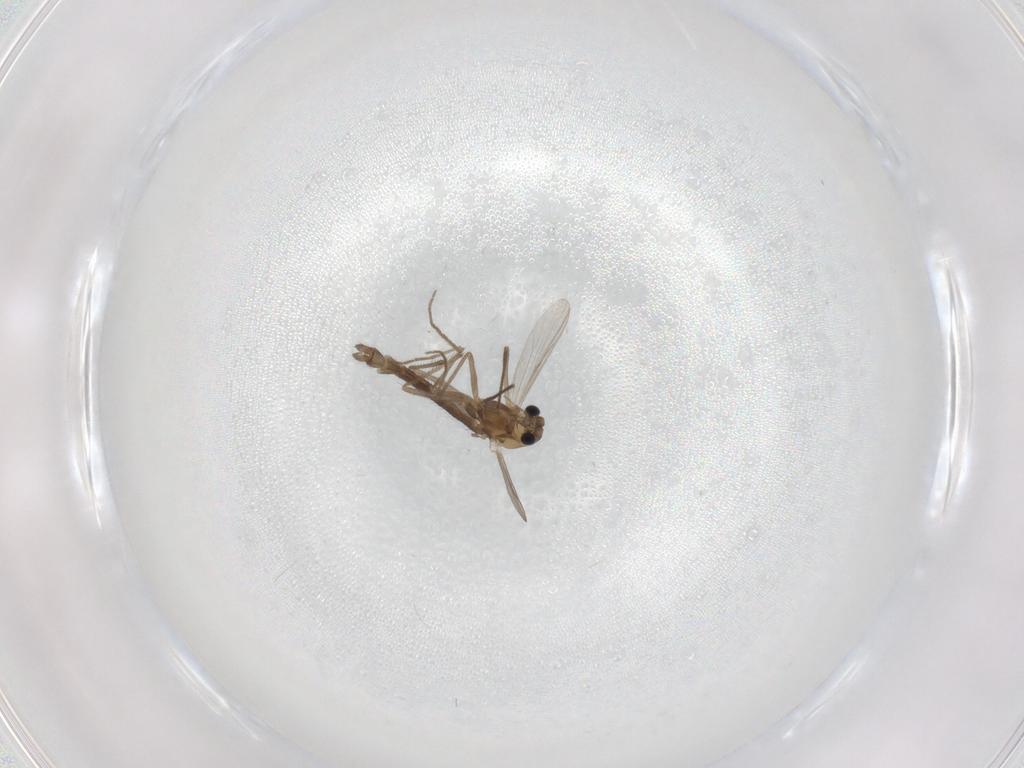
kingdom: Animalia
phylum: Arthropoda
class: Insecta
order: Diptera
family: Chironomidae
